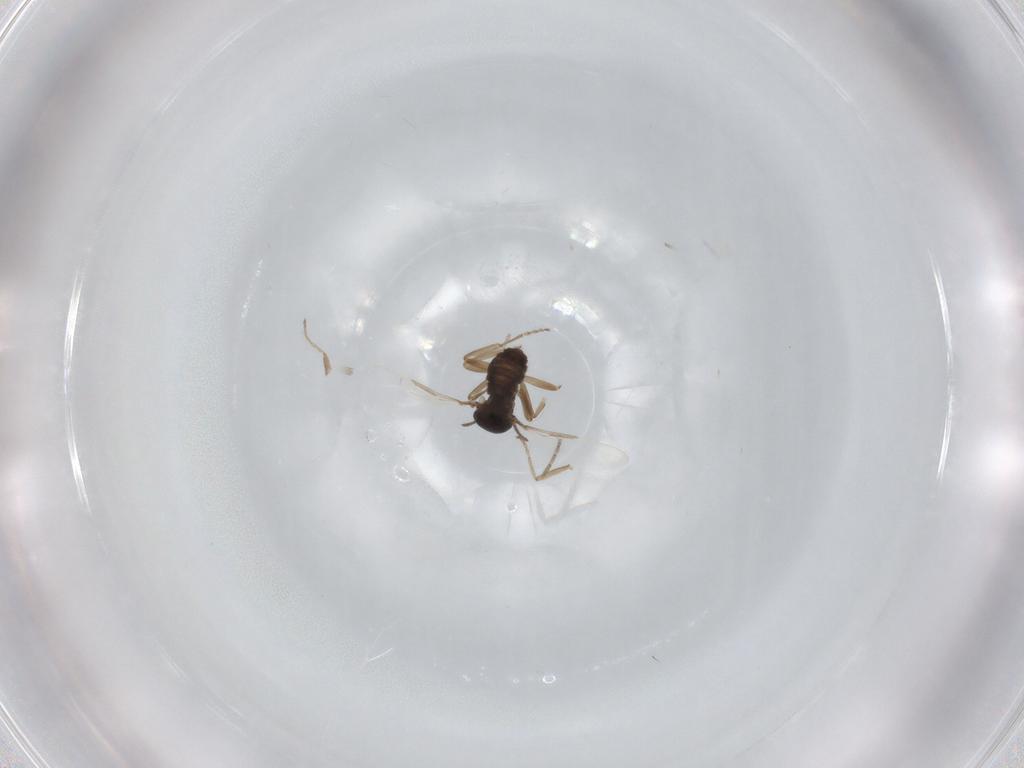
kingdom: Animalia
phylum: Arthropoda
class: Insecta
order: Diptera
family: Ceratopogonidae
